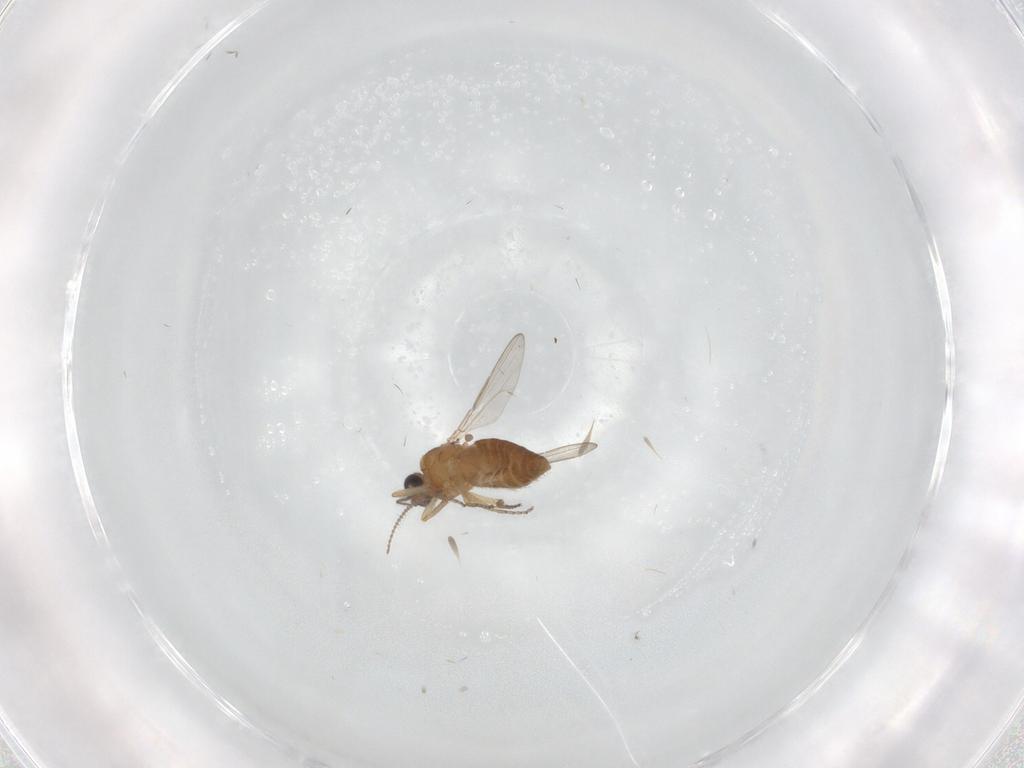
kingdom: Animalia
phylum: Arthropoda
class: Insecta
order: Diptera
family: Ceratopogonidae
